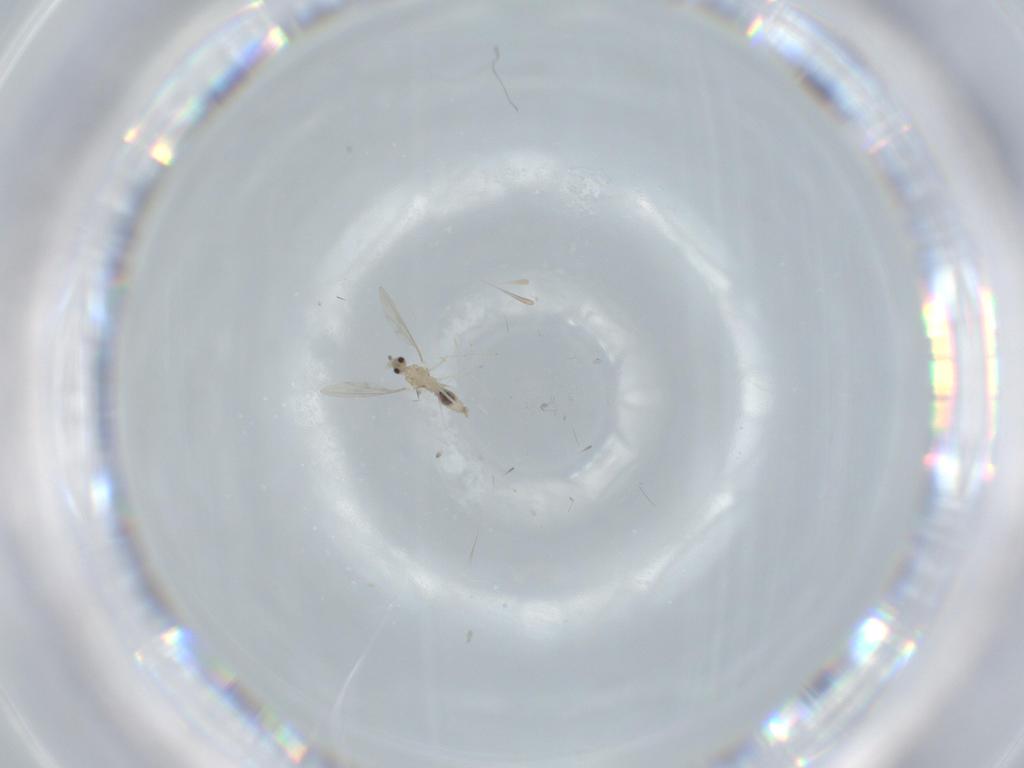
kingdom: Animalia
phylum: Arthropoda
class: Insecta
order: Diptera
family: Cecidomyiidae
